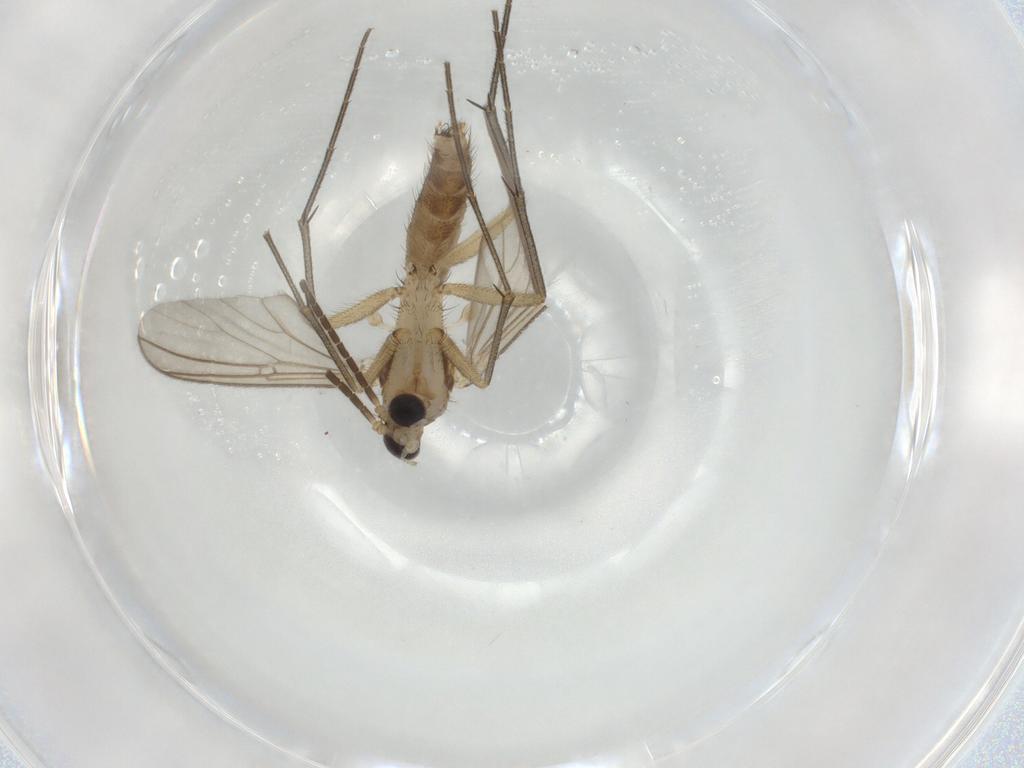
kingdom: Animalia
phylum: Arthropoda
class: Insecta
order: Diptera
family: Mycetophilidae
